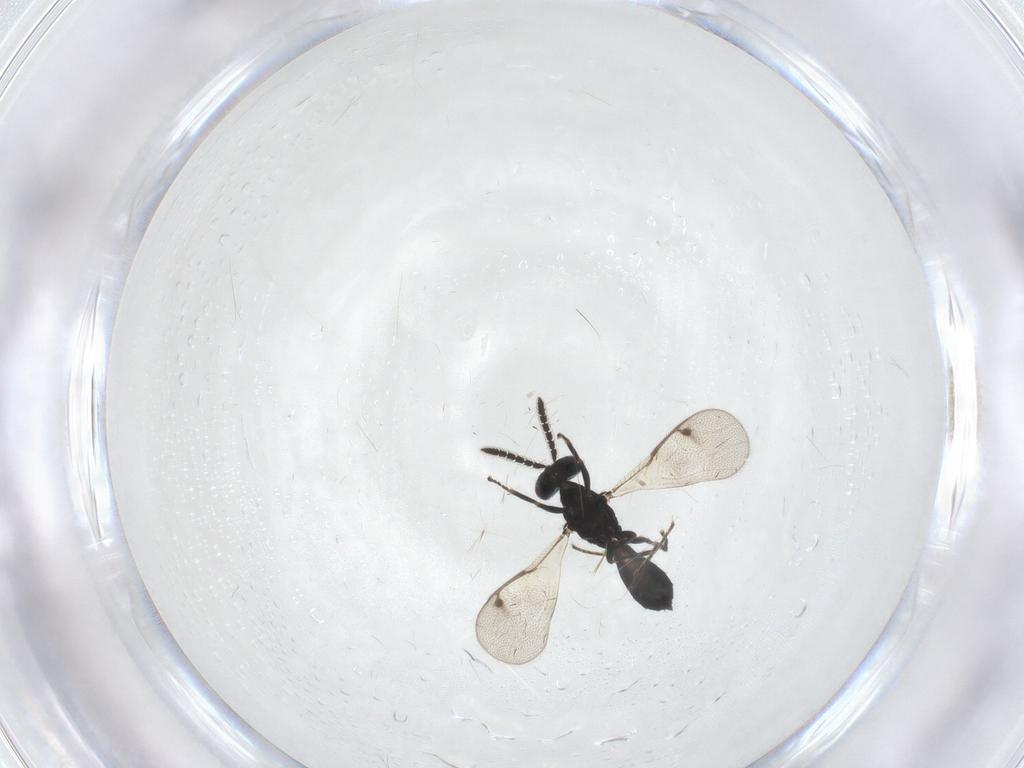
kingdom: Animalia
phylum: Arthropoda
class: Insecta
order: Hymenoptera
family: Pteromalidae
